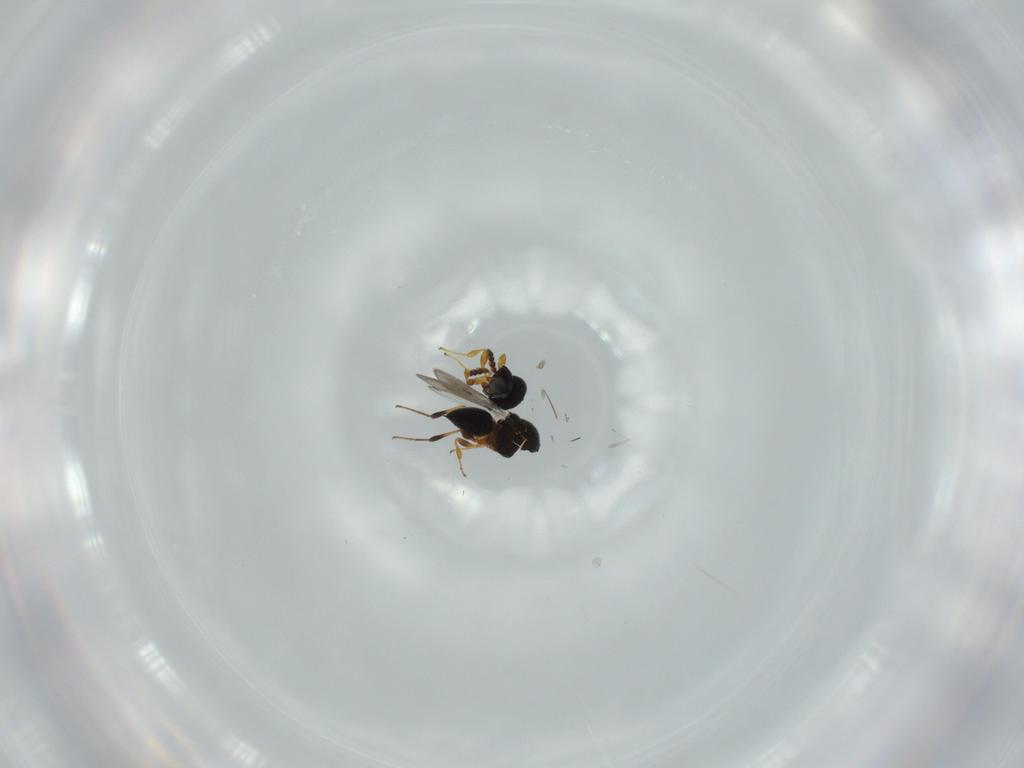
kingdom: Animalia
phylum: Arthropoda
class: Insecta
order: Hymenoptera
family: Platygastridae
